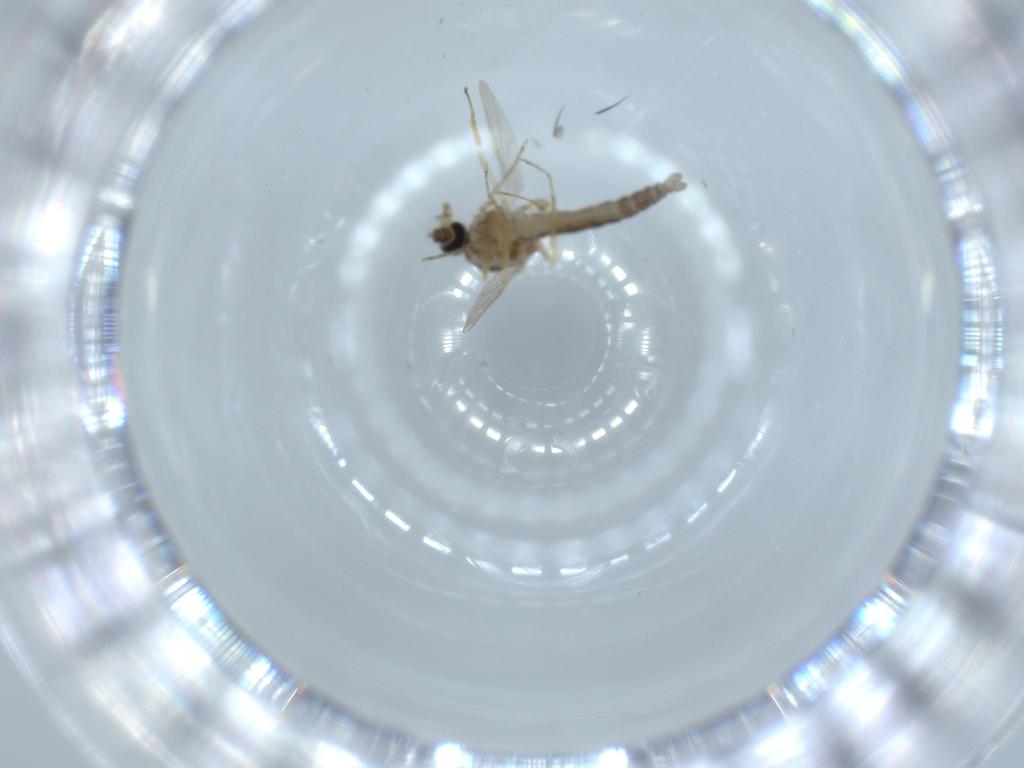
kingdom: Animalia
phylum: Arthropoda
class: Insecta
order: Diptera
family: Ceratopogonidae
